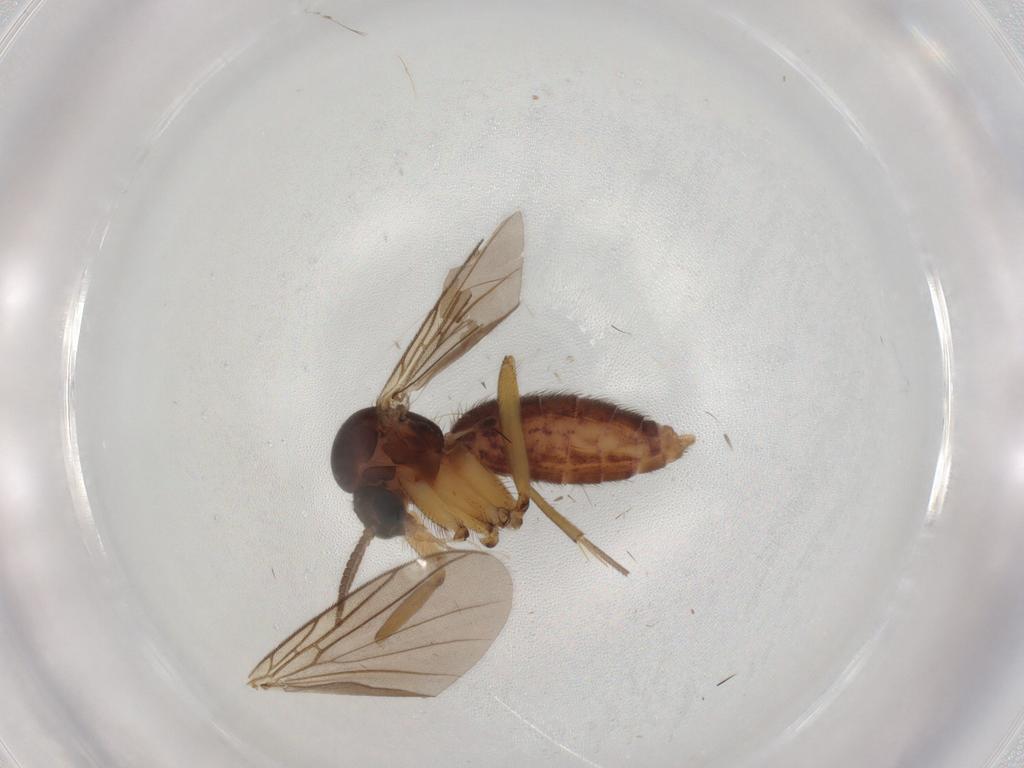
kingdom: Animalia
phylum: Arthropoda
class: Insecta
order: Diptera
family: Mycetophilidae
